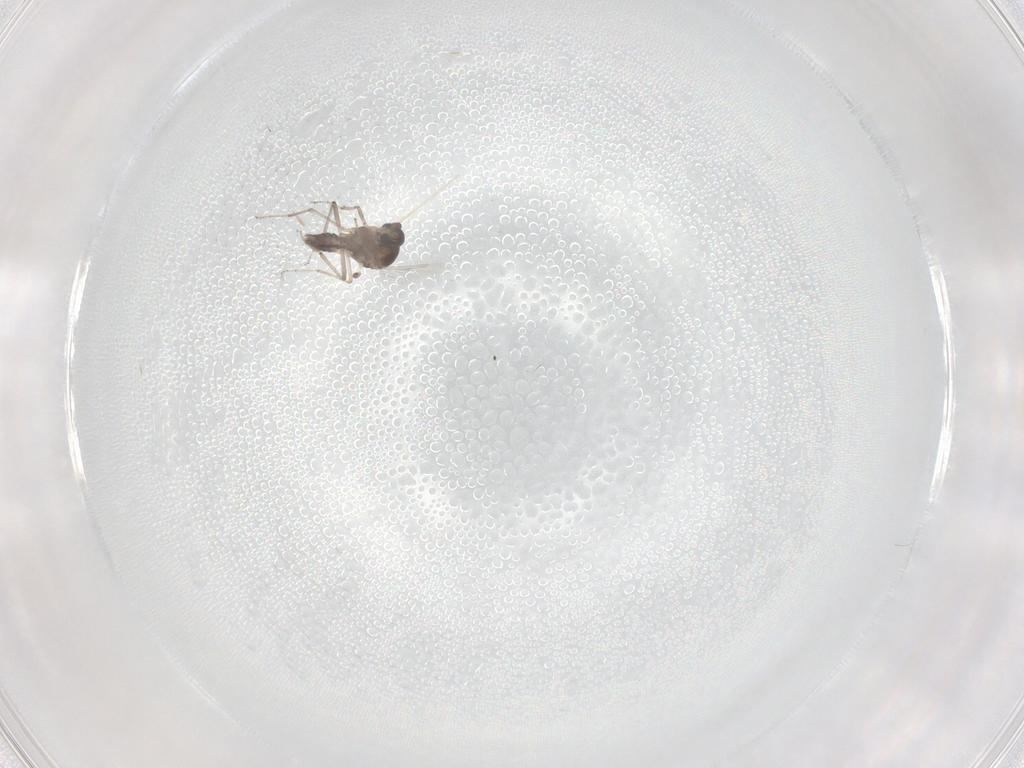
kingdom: Animalia
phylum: Arthropoda
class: Insecta
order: Diptera
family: Ceratopogonidae
